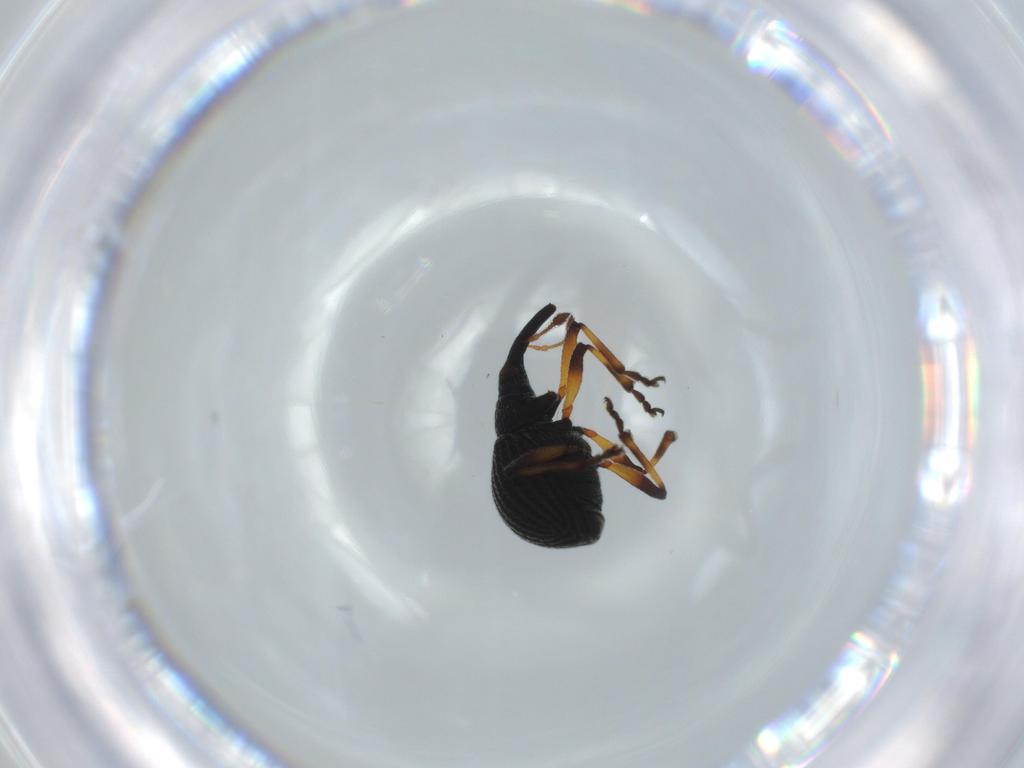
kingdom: Animalia
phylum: Arthropoda
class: Insecta
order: Coleoptera
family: Brentidae
